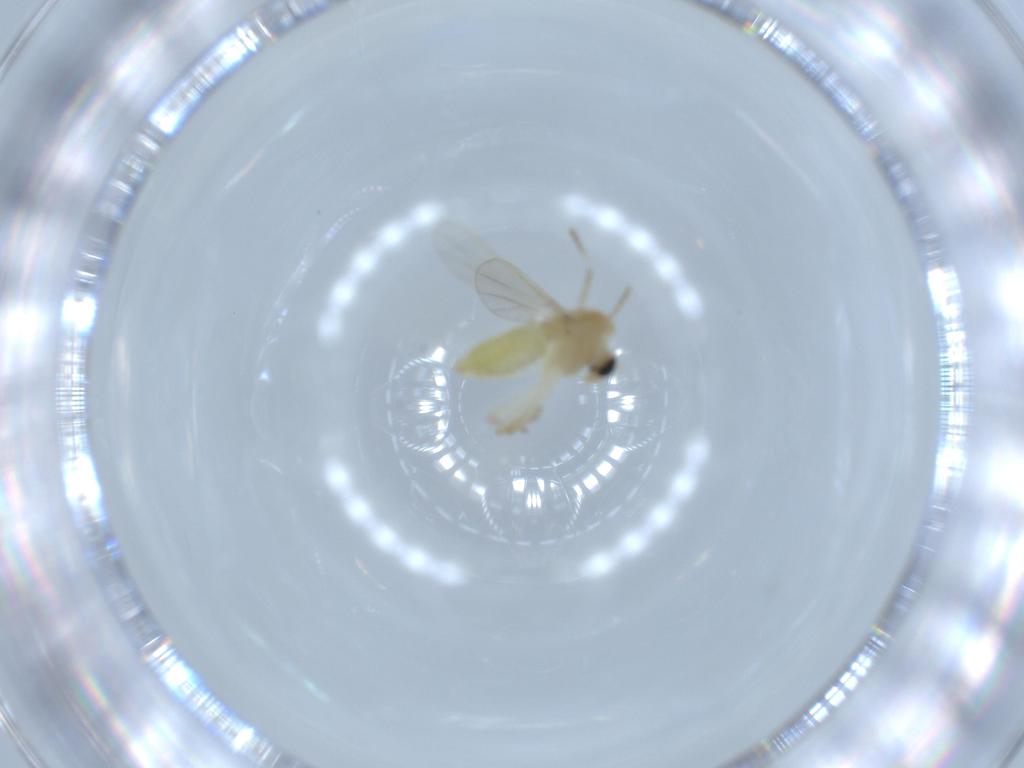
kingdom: Animalia
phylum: Arthropoda
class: Insecta
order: Diptera
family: Chironomidae
